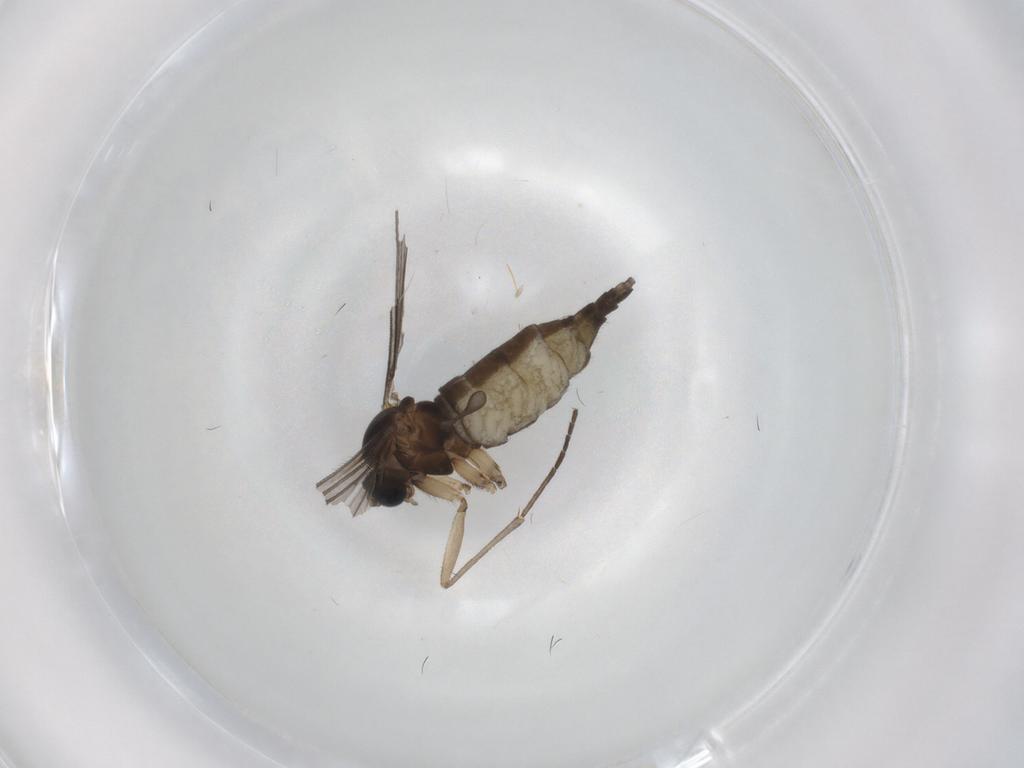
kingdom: Animalia
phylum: Arthropoda
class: Insecta
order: Diptera
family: Sciaridae
